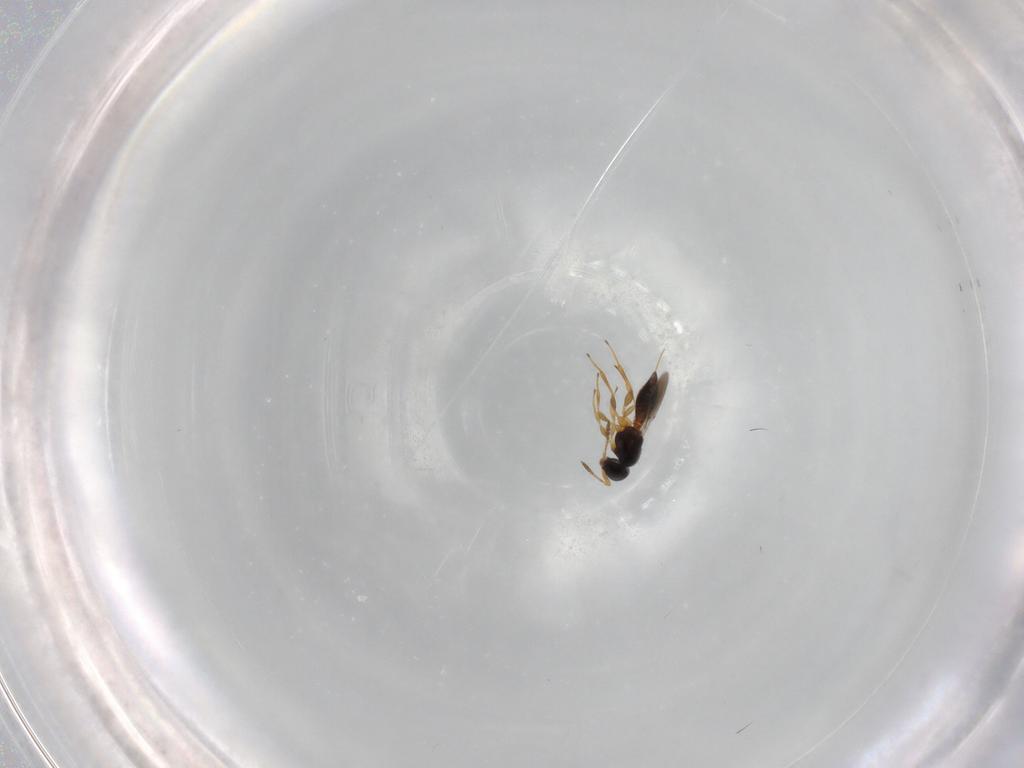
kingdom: Animalia
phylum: Arthropoda
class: Insecta
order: Hymenoptera
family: Platygastridae
